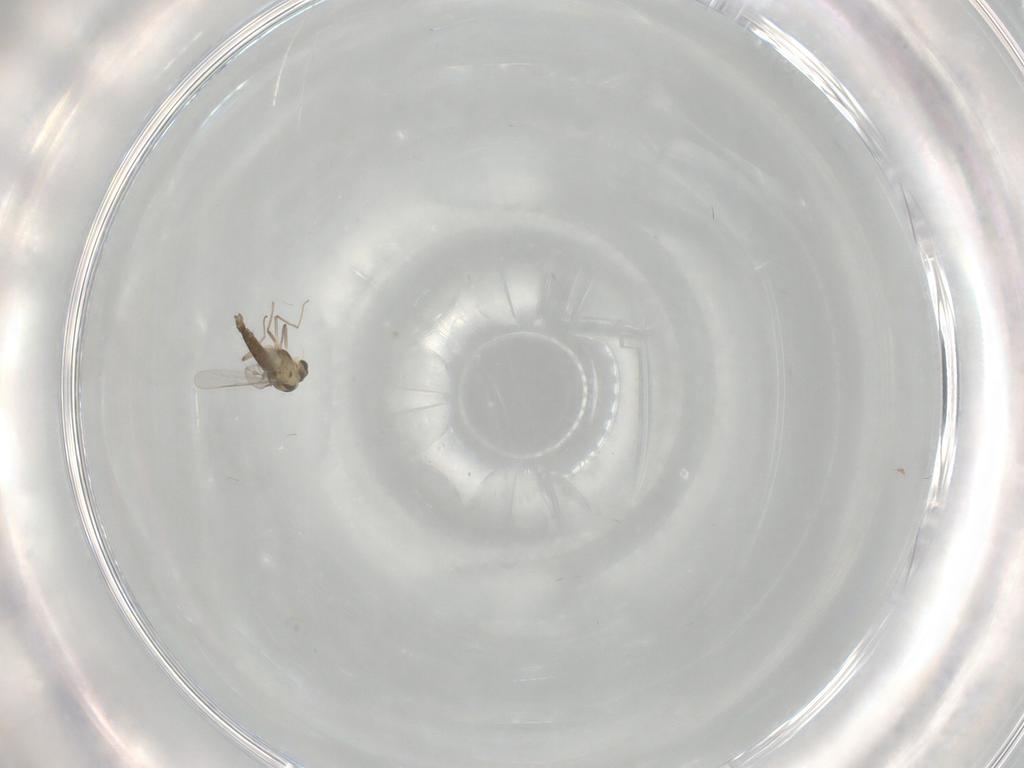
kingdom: Animalia
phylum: Arthropoda
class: Insecta
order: Diptera
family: Chironomidae
